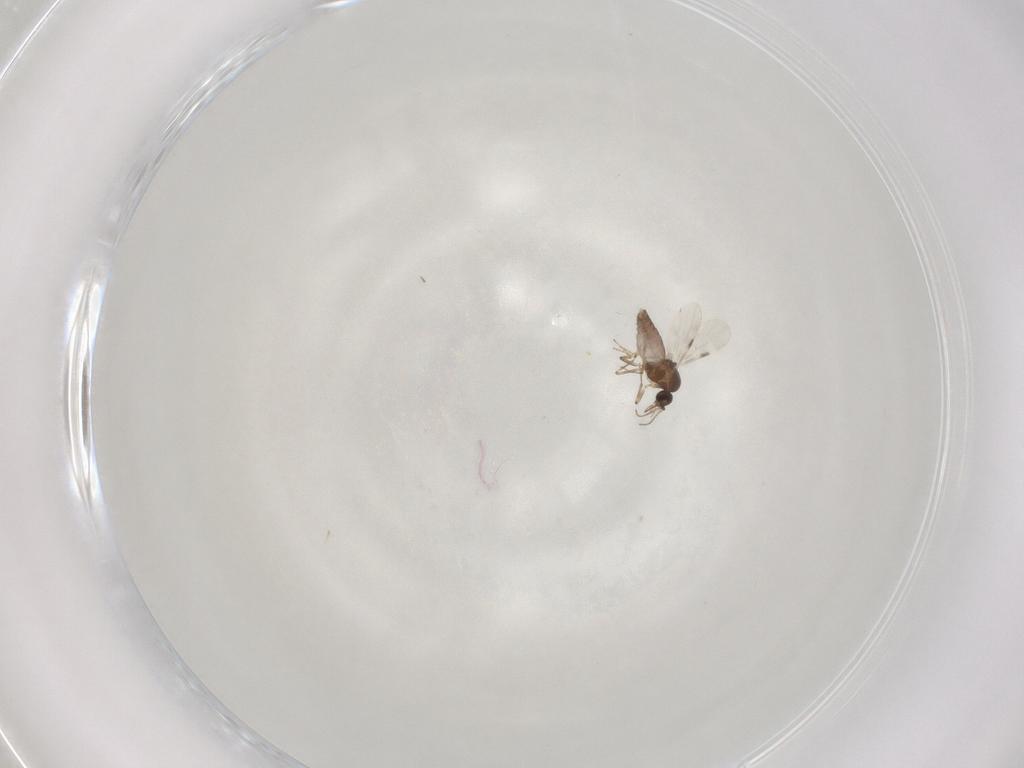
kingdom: Animalia
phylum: Arthropoda
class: Insecta
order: Diptera
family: Hybotidae
